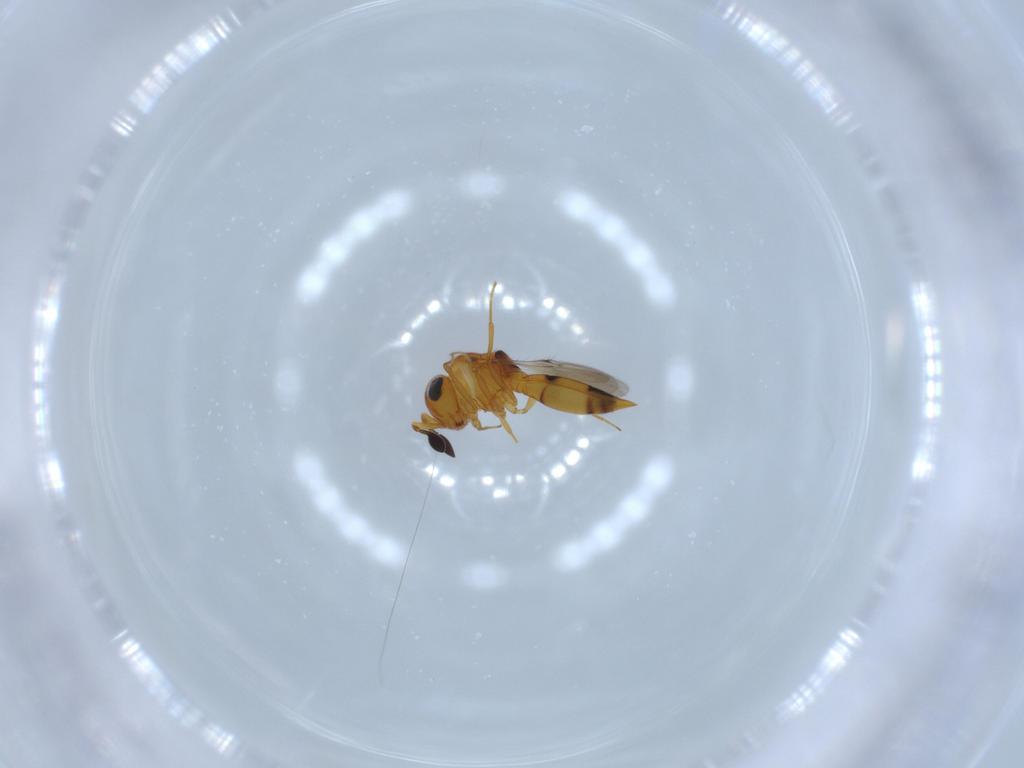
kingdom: Animalia
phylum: Arthropoda
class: Insecta
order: Hymenoptera
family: Scelionidae
